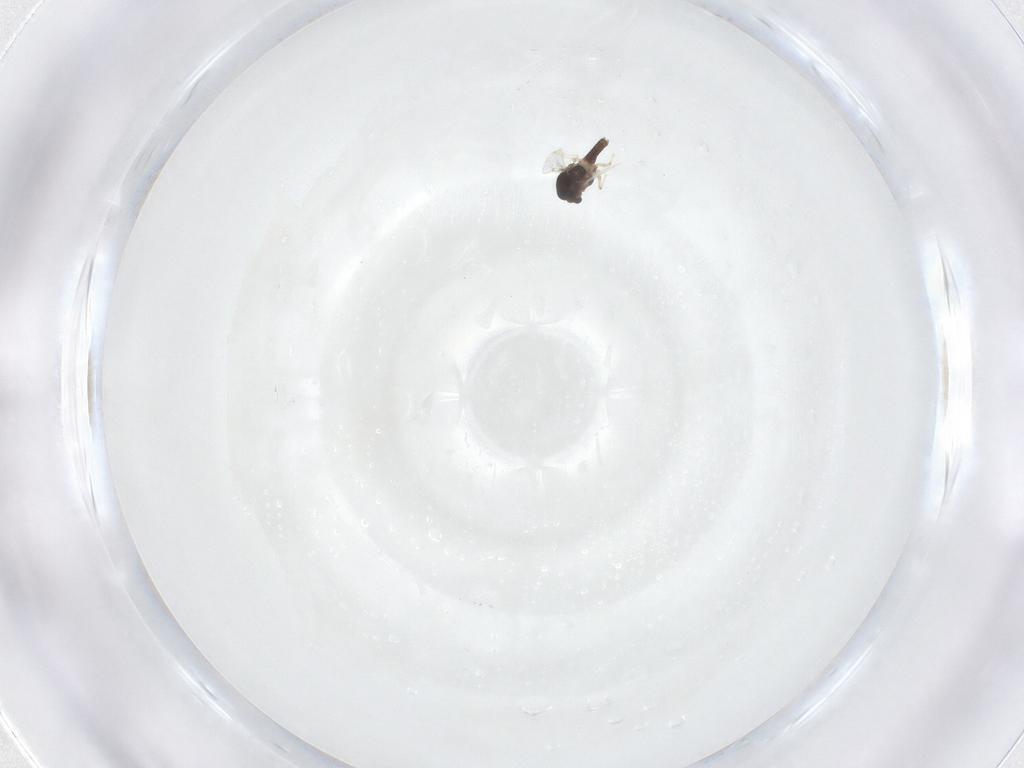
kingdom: Animalia
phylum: Arthropoda
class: Insecta
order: Diptera
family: Chironomidae
